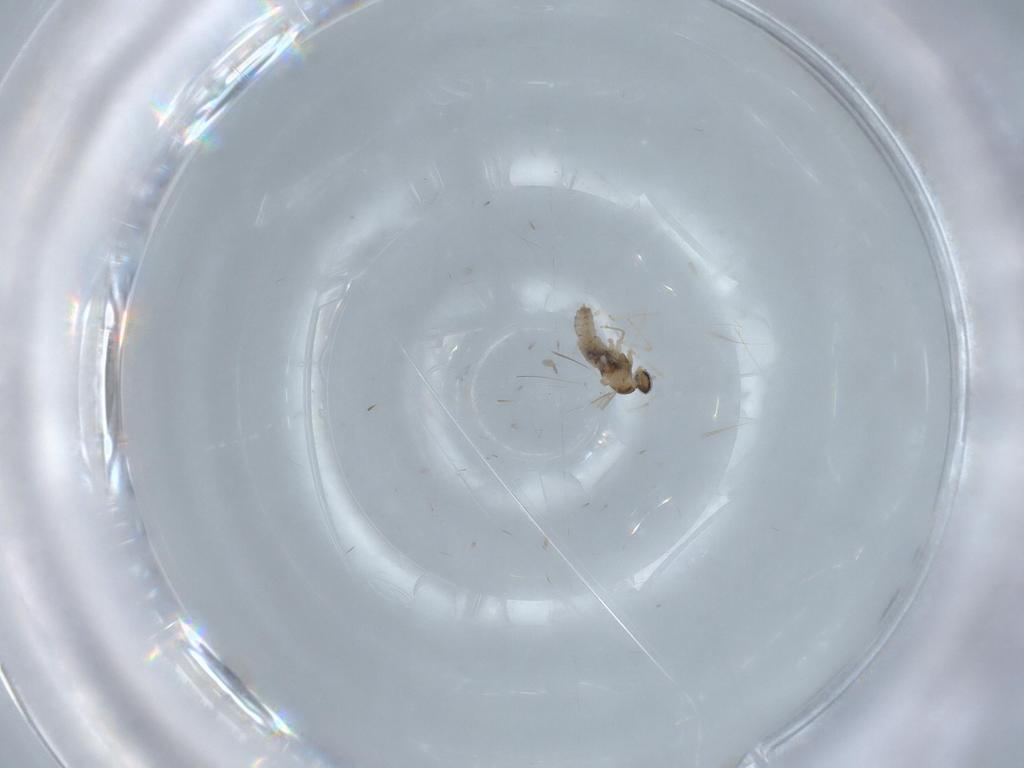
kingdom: Animalia
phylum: Arthropoda
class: Insecta
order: Diptera
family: Cecidomyiidae
